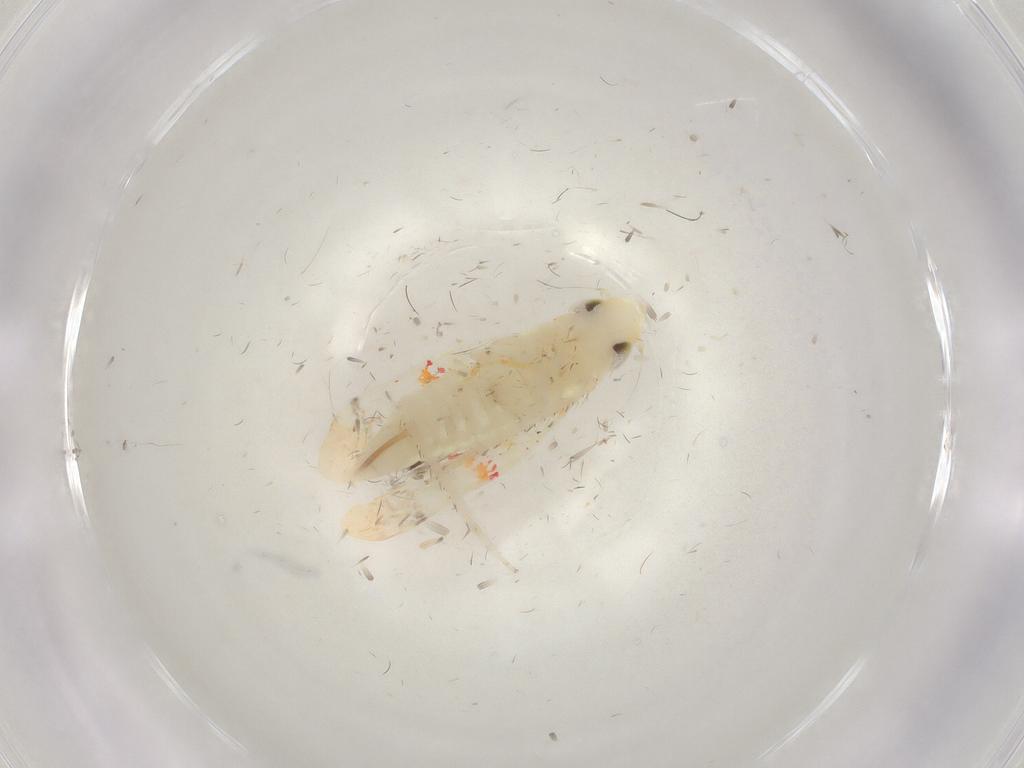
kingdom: Animalia
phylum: Arthropoda
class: Insecta
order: Hemiptera
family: Cicadellidae
